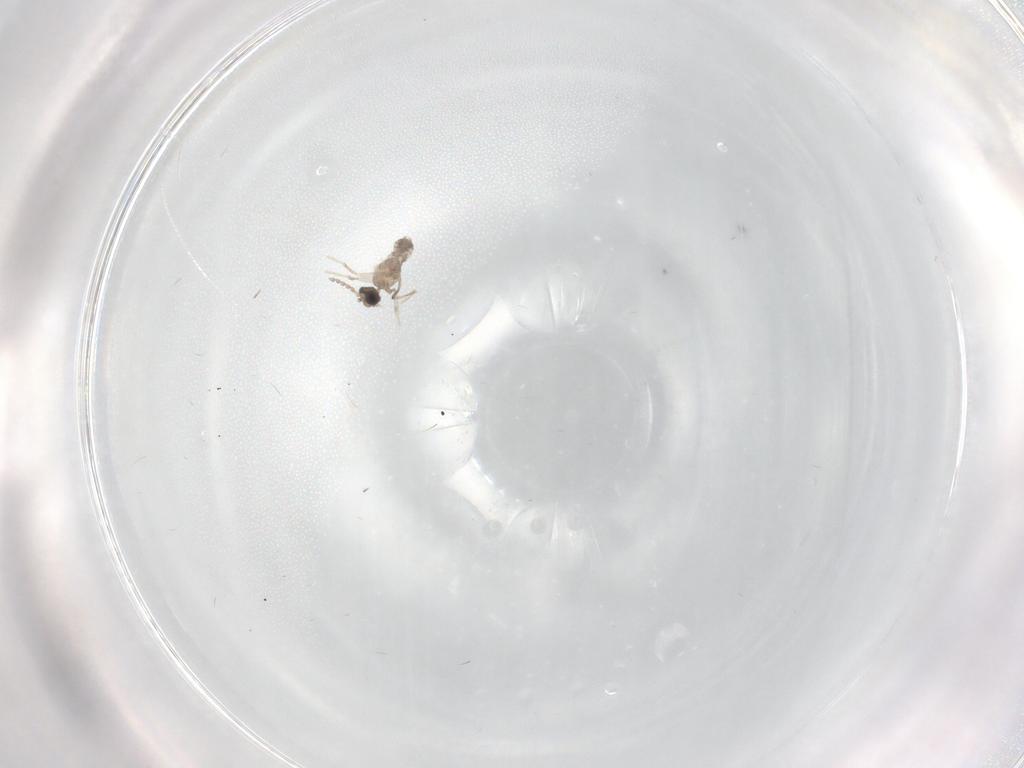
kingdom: Animalia
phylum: Arthropoda
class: Insecta
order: Diptera
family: Cecidomyiidae
